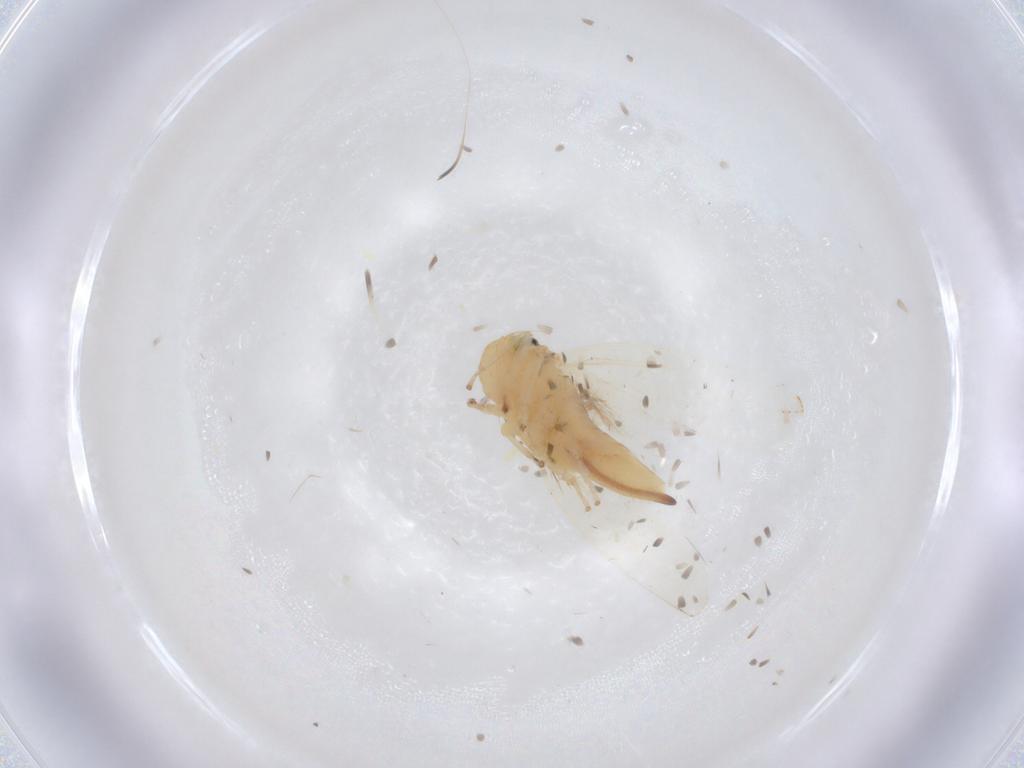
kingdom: Animalia
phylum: Arthropoda
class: Insecta
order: Hemiptera
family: Cicadellidae
